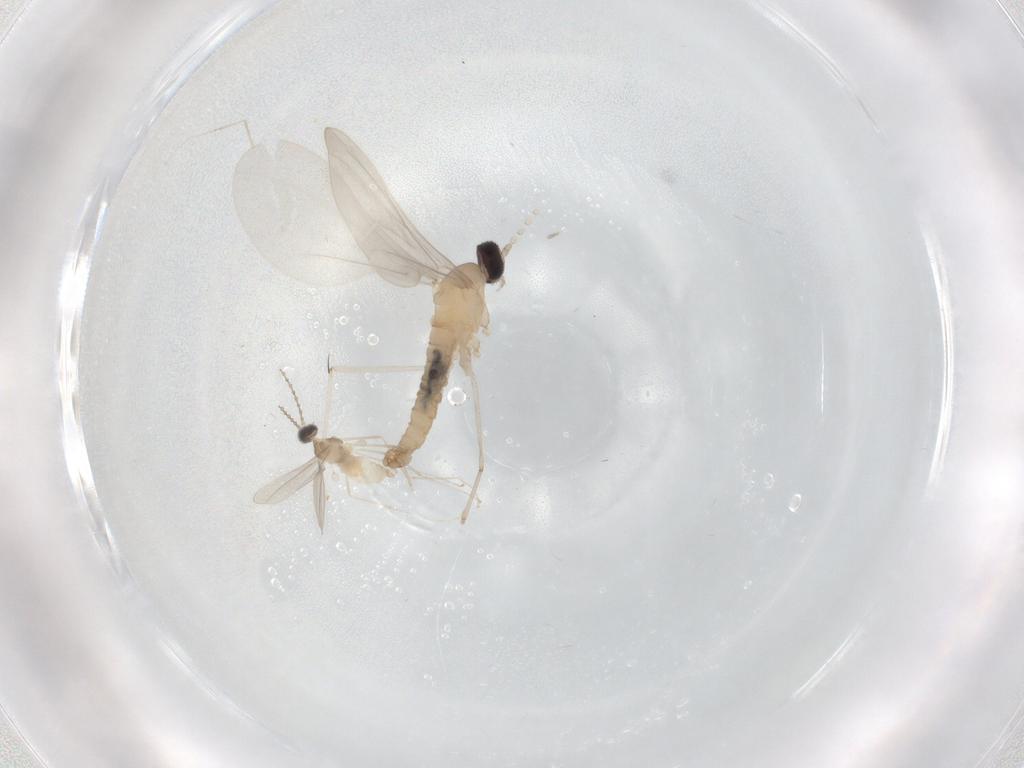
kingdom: Animalia
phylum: Arthropoda
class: Insecta
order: Diptera
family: Cecidomyiidae
